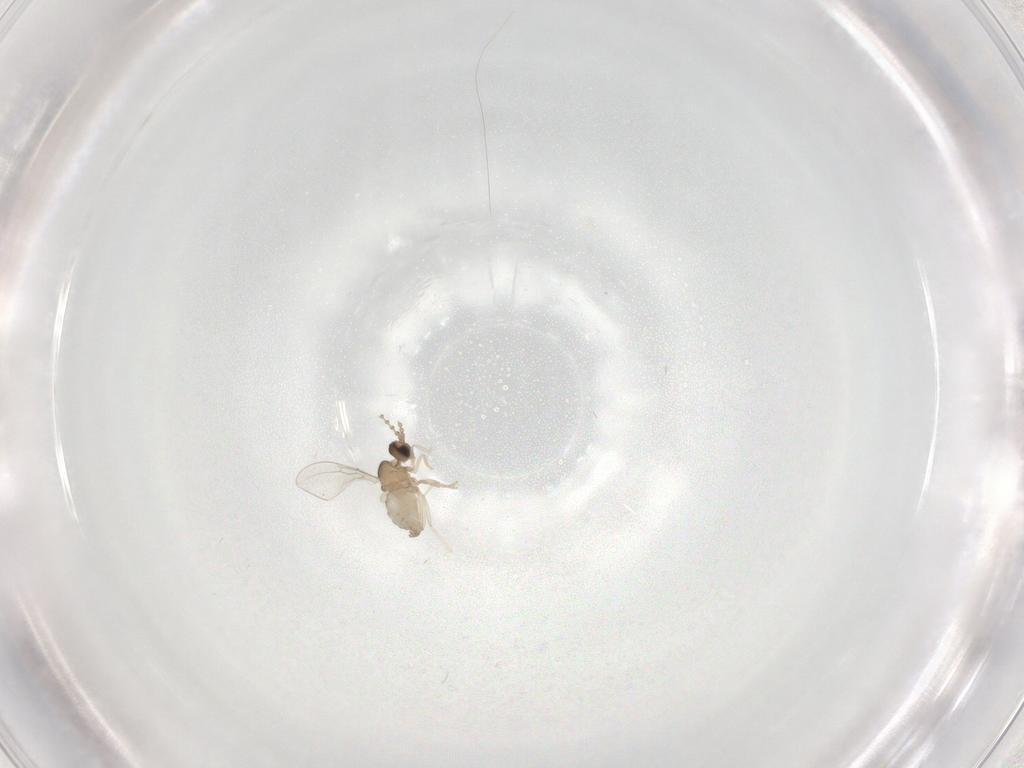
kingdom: Animalia
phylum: Arthropoda
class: Insecta
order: Diptera
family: Cecidomyiidae
